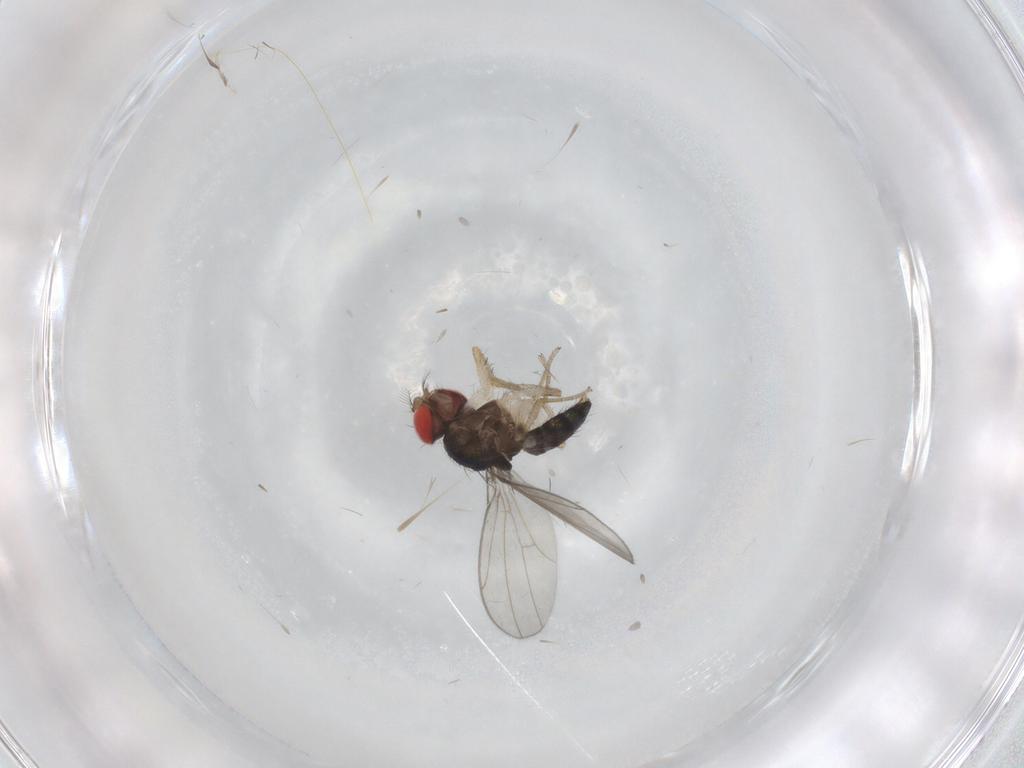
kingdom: Animalia
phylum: Arthropoda
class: Insecta
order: Diptera
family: Drosophilidae
